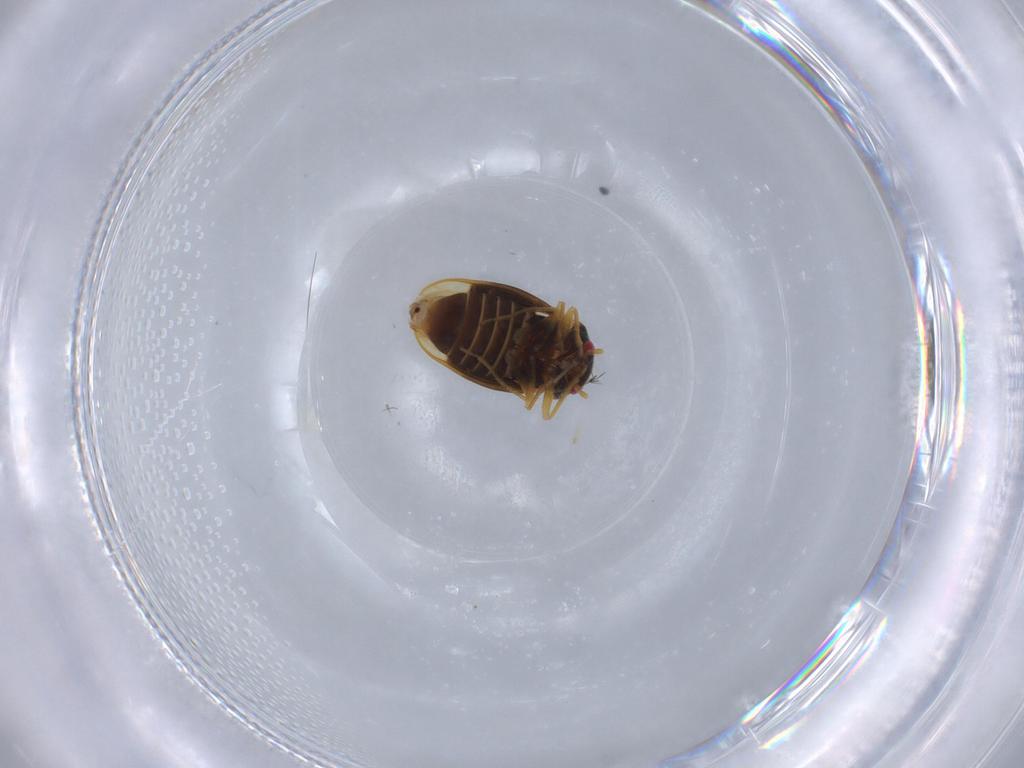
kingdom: Animalia
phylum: Arthropoda
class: Insecta
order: Hemiptera
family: Schizopteridae
